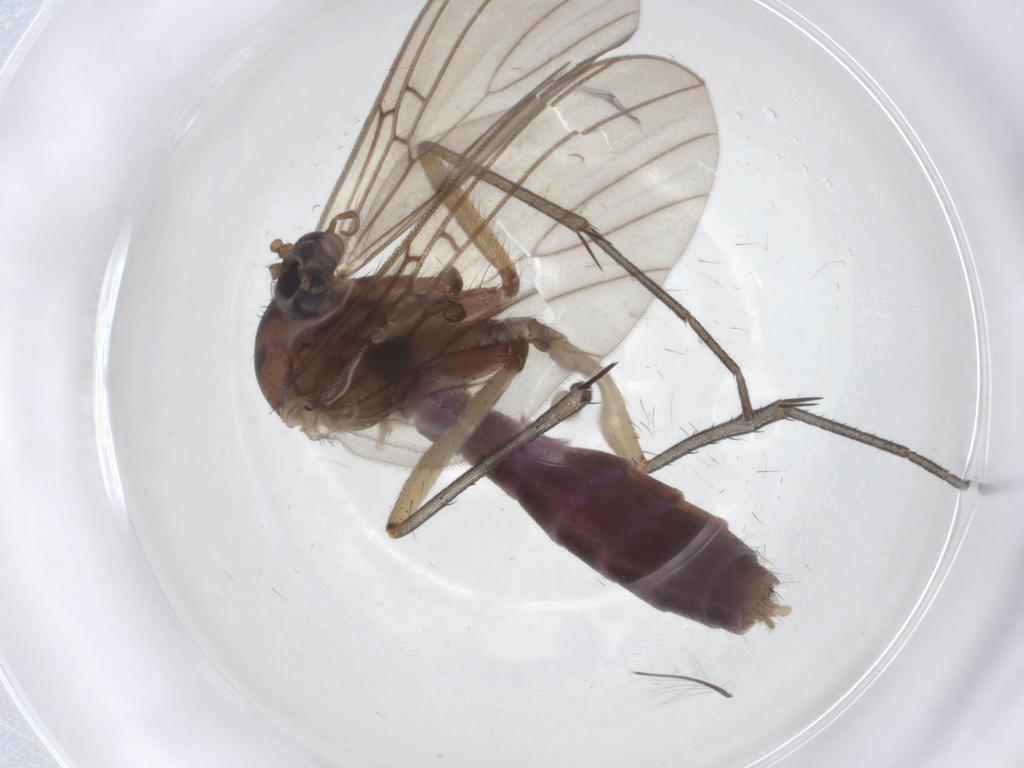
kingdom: Animalia
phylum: Arthropoda
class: Insecta
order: Diptera
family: Mycetophilidae
